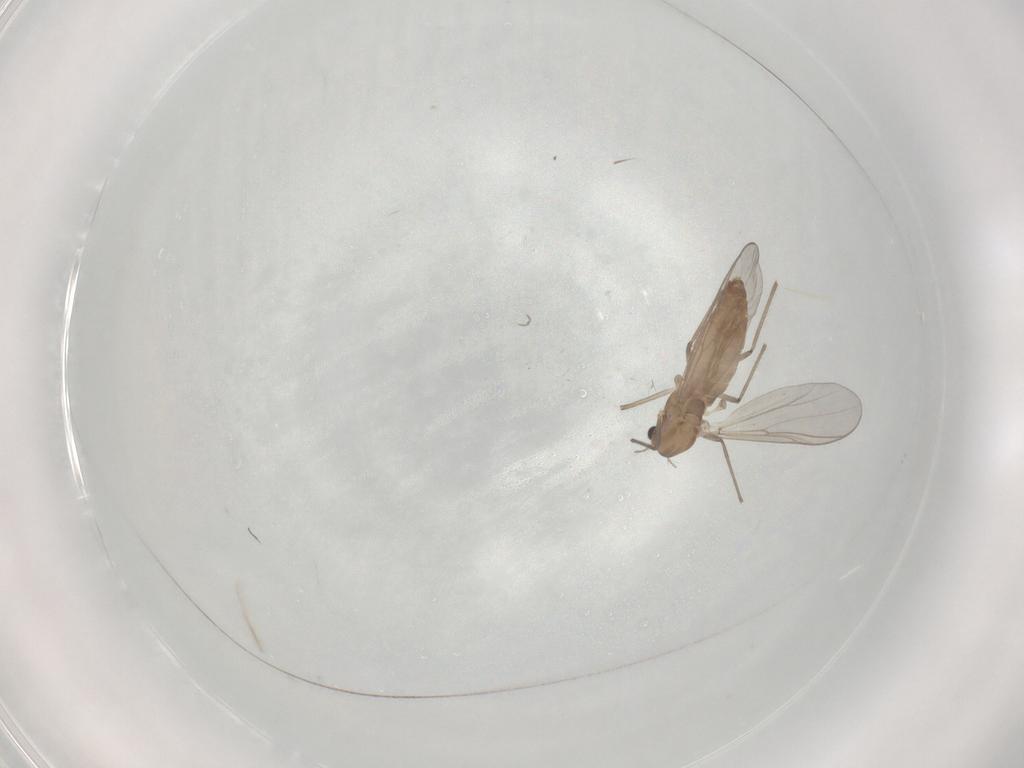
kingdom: Animalia
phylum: Arthropoda
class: Insecta
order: Diptera
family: Chironomidae
